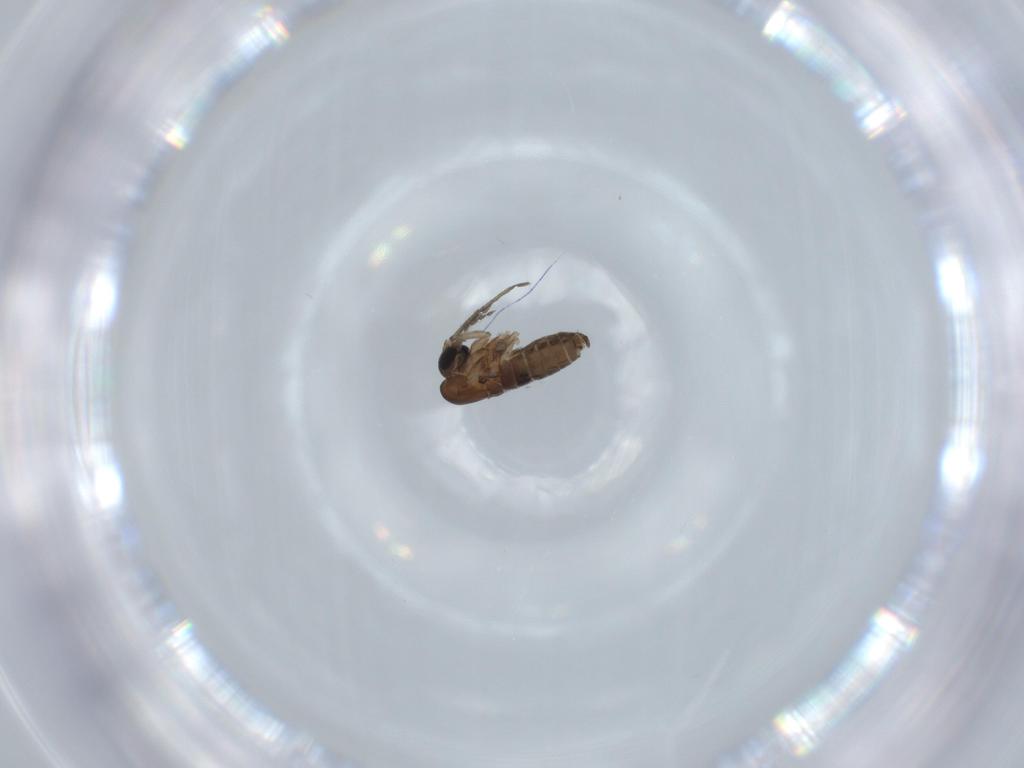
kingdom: Animalia
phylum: Arthropoda
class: Insecta
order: Diptera
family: Psychodidae
